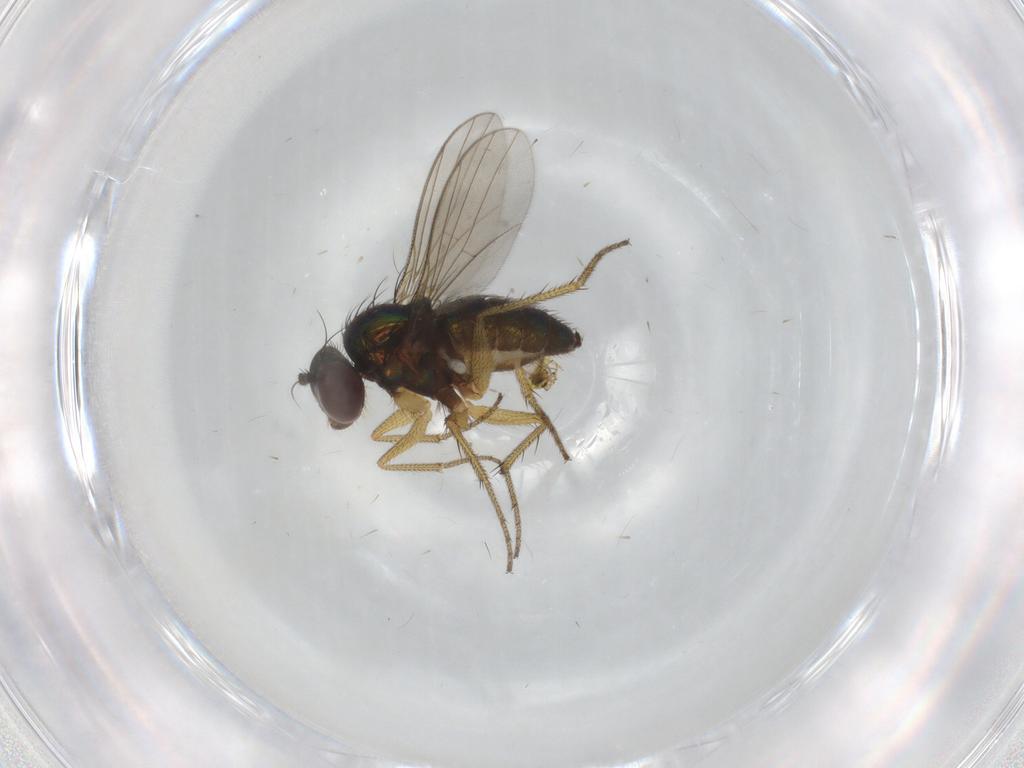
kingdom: Animalia
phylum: Arthropoda
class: Insecta
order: Diptera
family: Dolichopodidae
